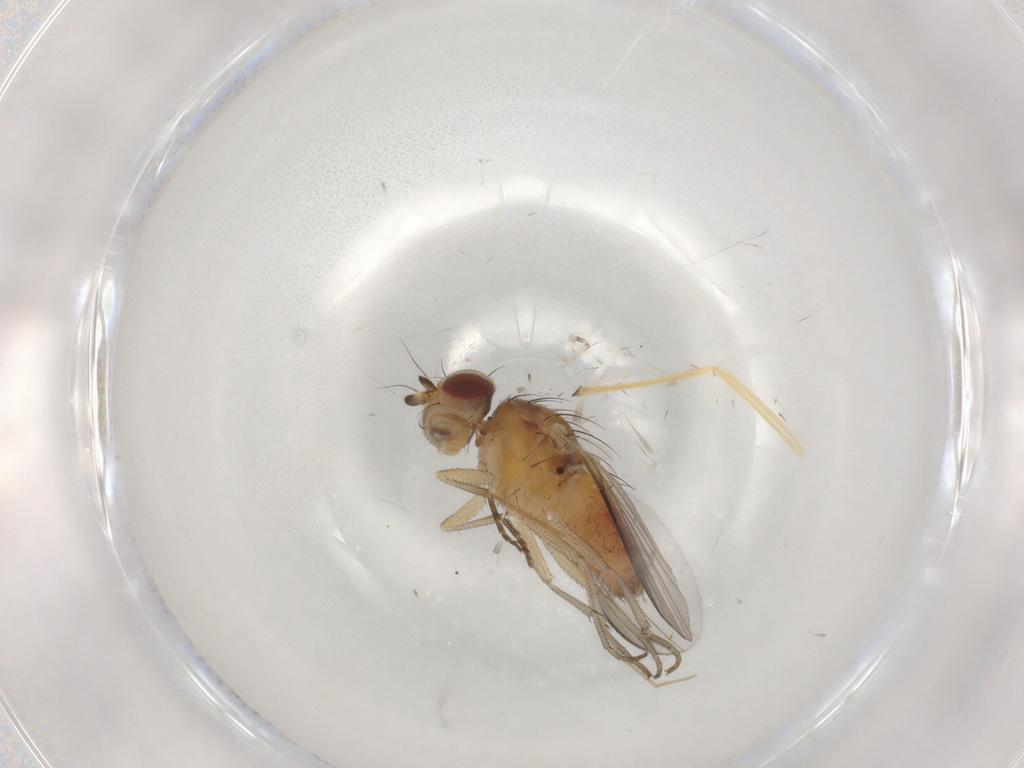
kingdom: Animalia
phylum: Arthropoda
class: Insecta
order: Diptera
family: Heleomyzidae
